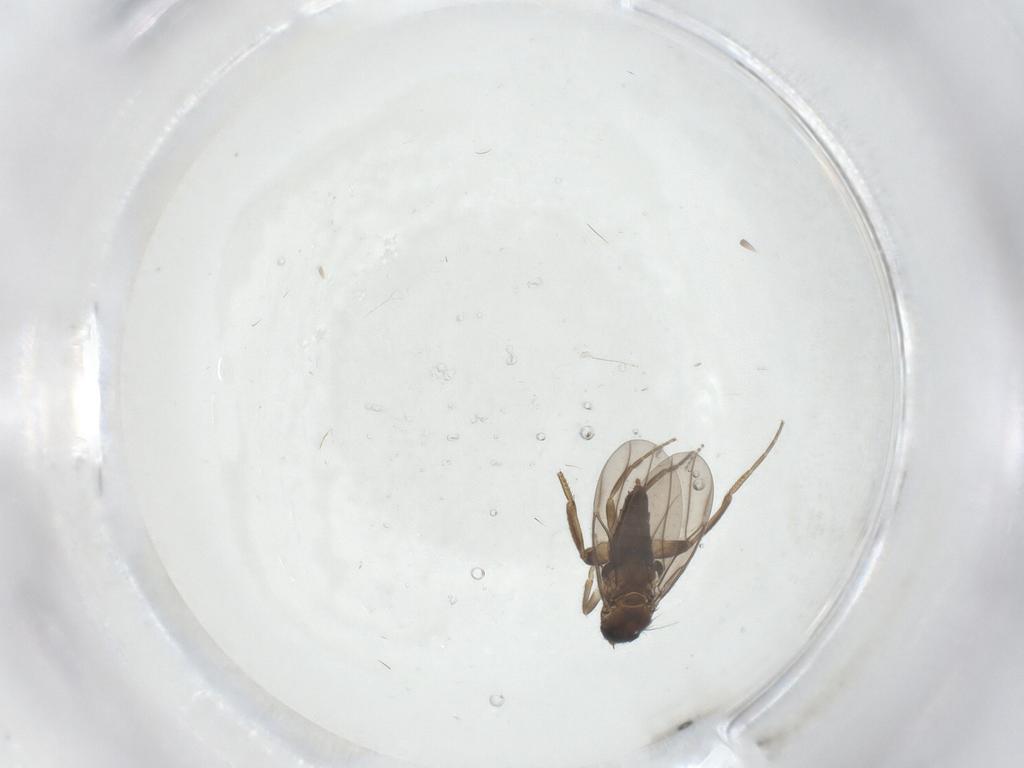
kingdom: Animalia
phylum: Arthropoda
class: Insecta
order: Diptera
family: Cecidomyiidae
